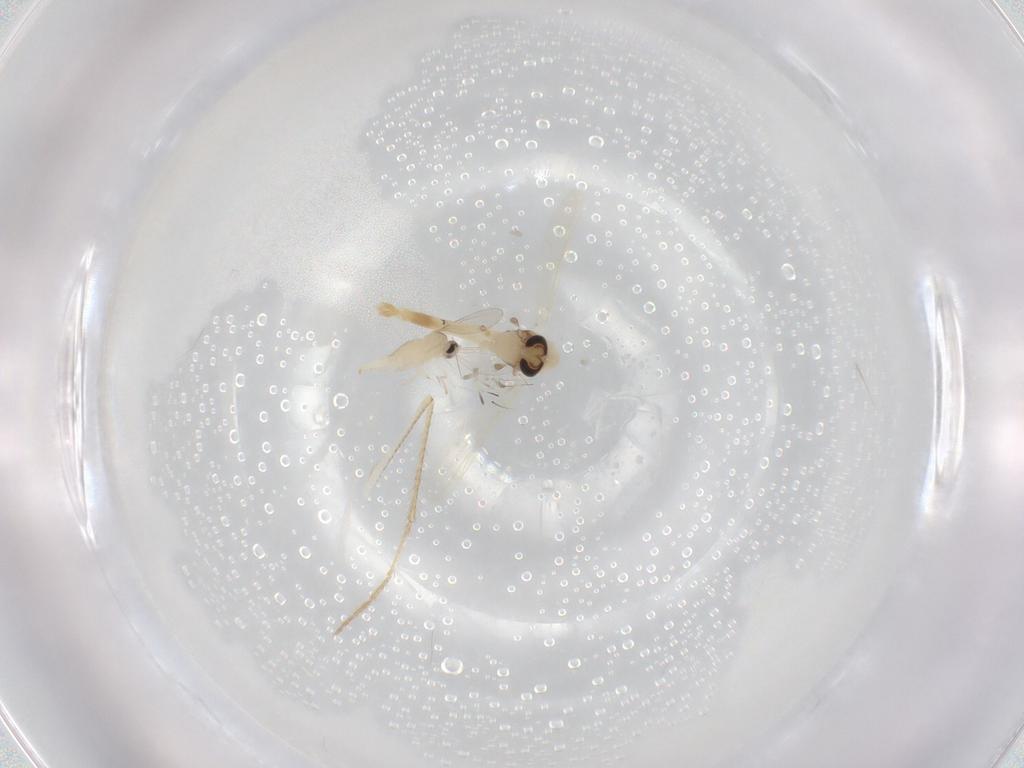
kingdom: Animalia
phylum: Arthropoda
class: Insecta
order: Diptera
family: Chironomidae
